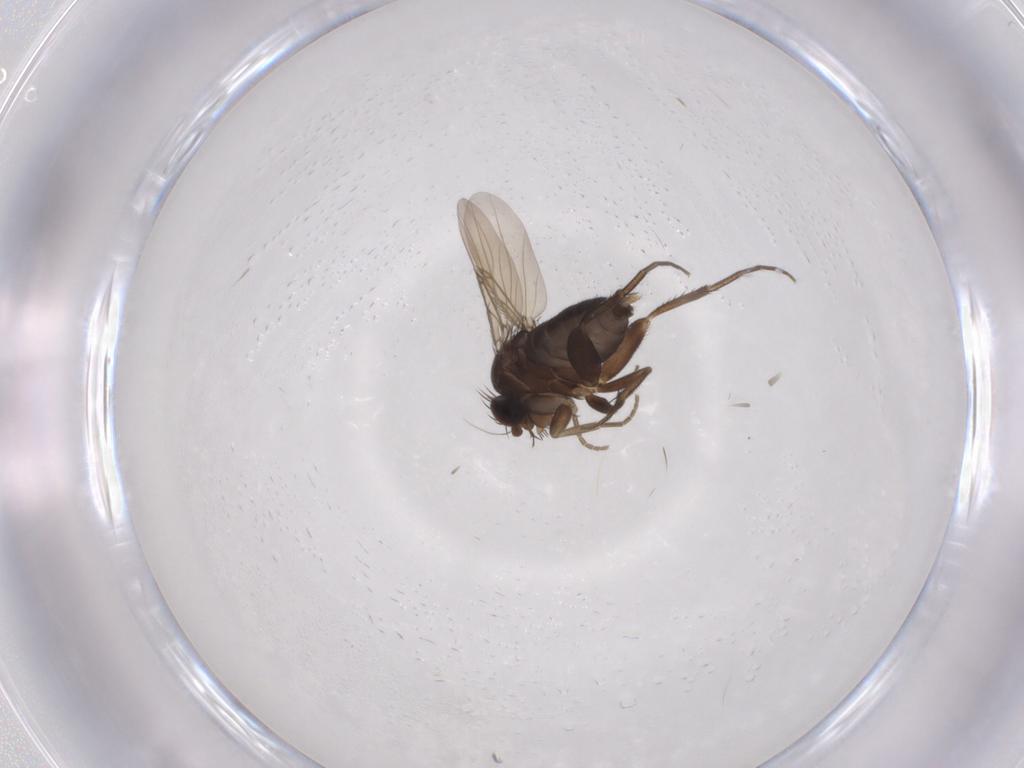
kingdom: Animalia
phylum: Arthropoda
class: Insecta
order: Diptera
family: Phoridae
